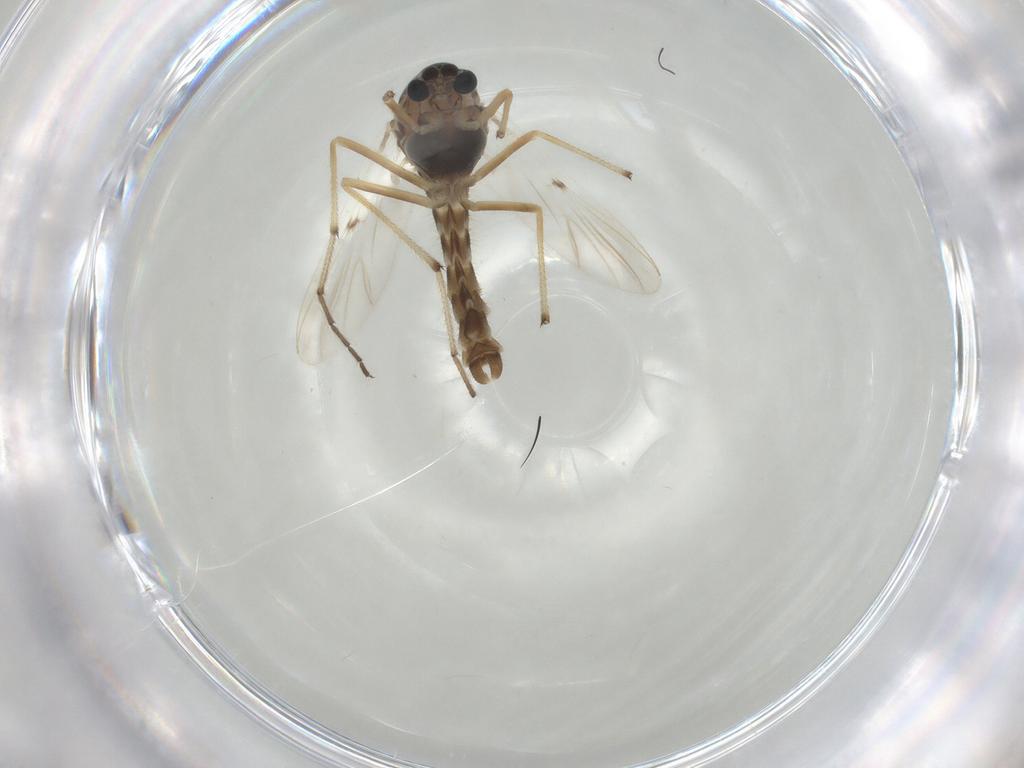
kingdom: Animalia
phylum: Arthropoda
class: Insecta
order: Diptera
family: Chironomidae
